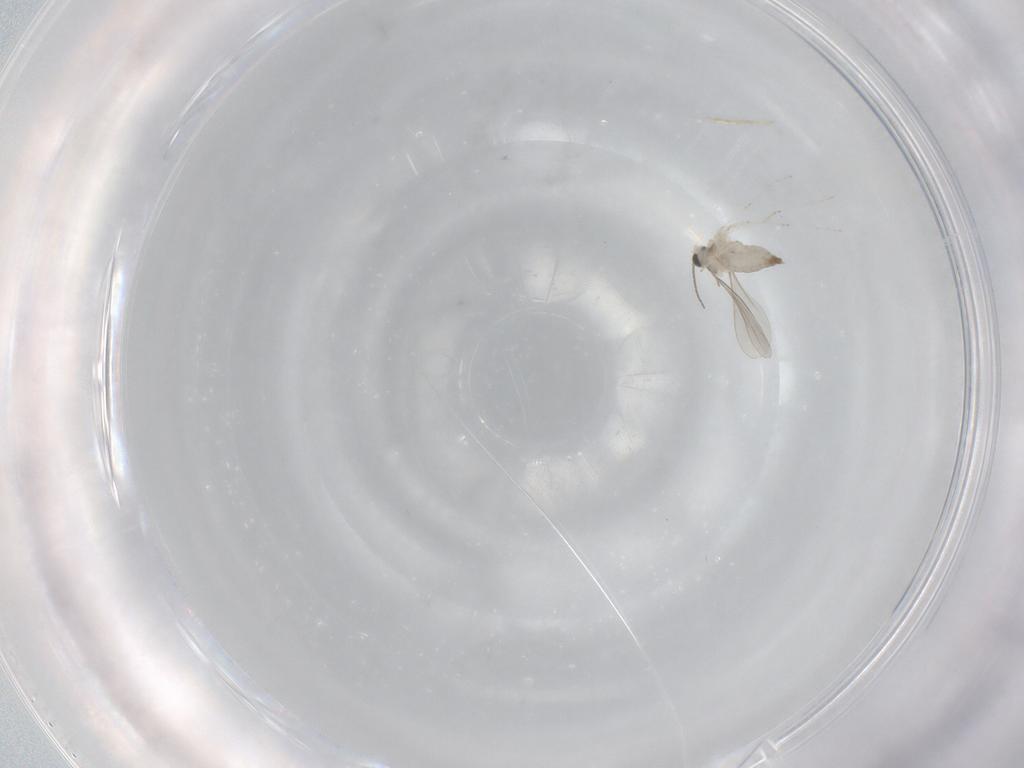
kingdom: Animalia
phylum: Arthropoda
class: Insecta
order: Diptera
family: Cecidomyiidae
